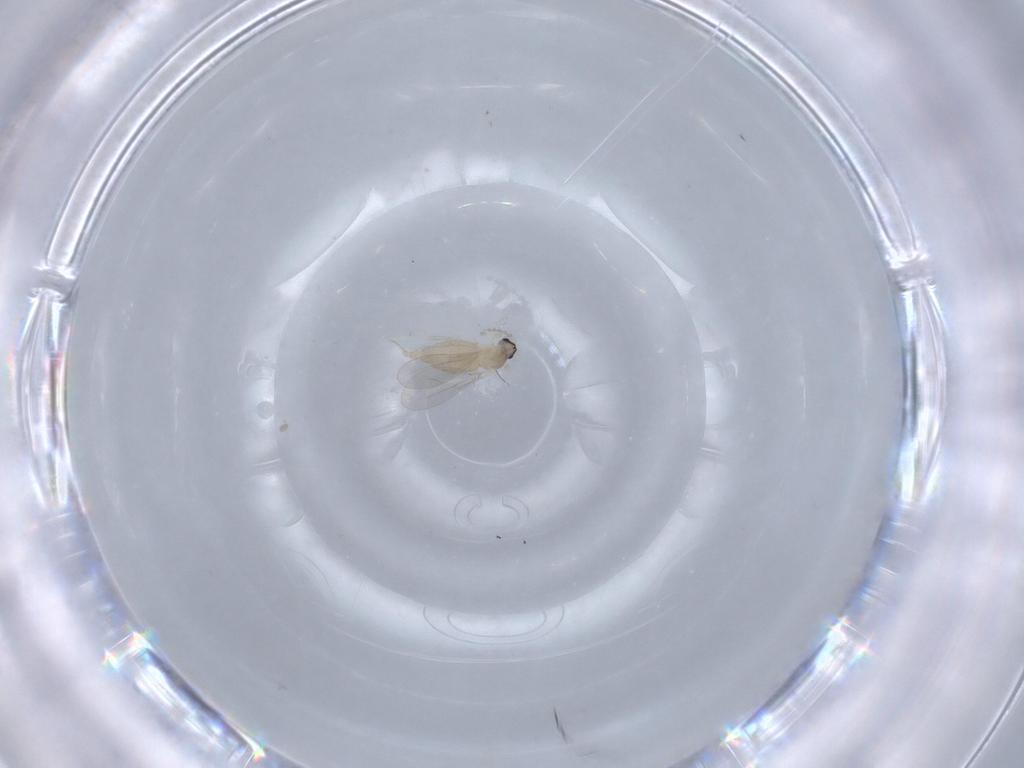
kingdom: Animalia
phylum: Arthropoda
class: Insecta
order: Diptera
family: Cecidomyiidae
